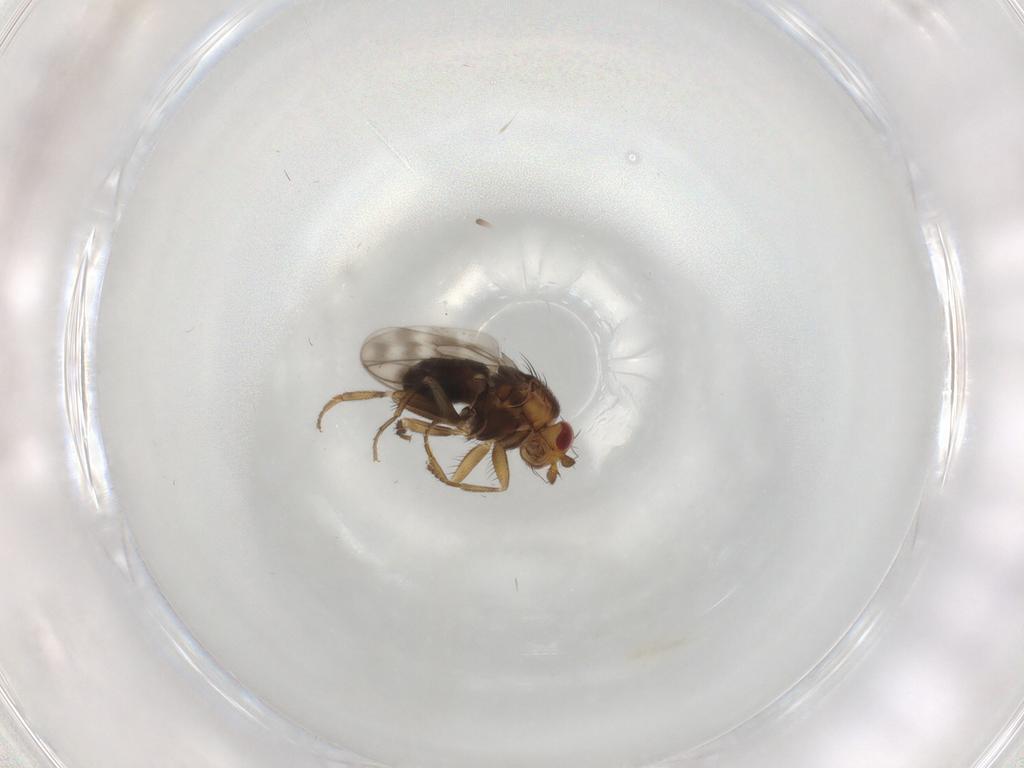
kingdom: Animalia
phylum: Arthropoda
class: Insecta
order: Diptera
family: Sphaeroceridae
